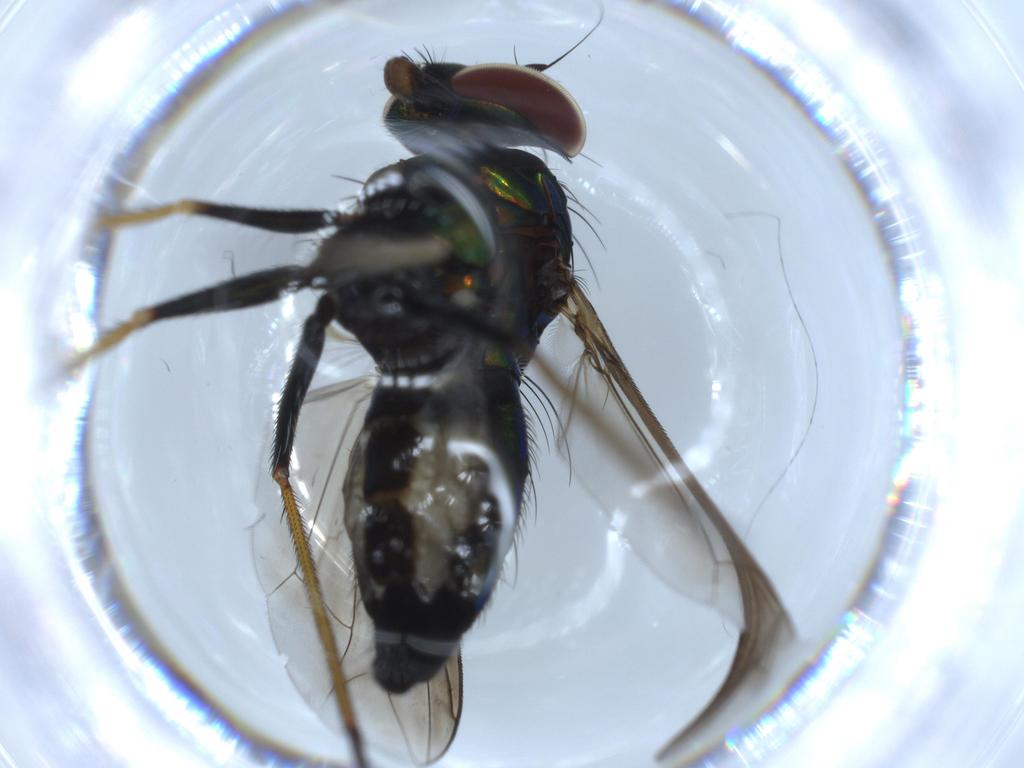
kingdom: Animalia
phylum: Arthropoda
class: Insecta
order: Diptera
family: Dolichopodidae
